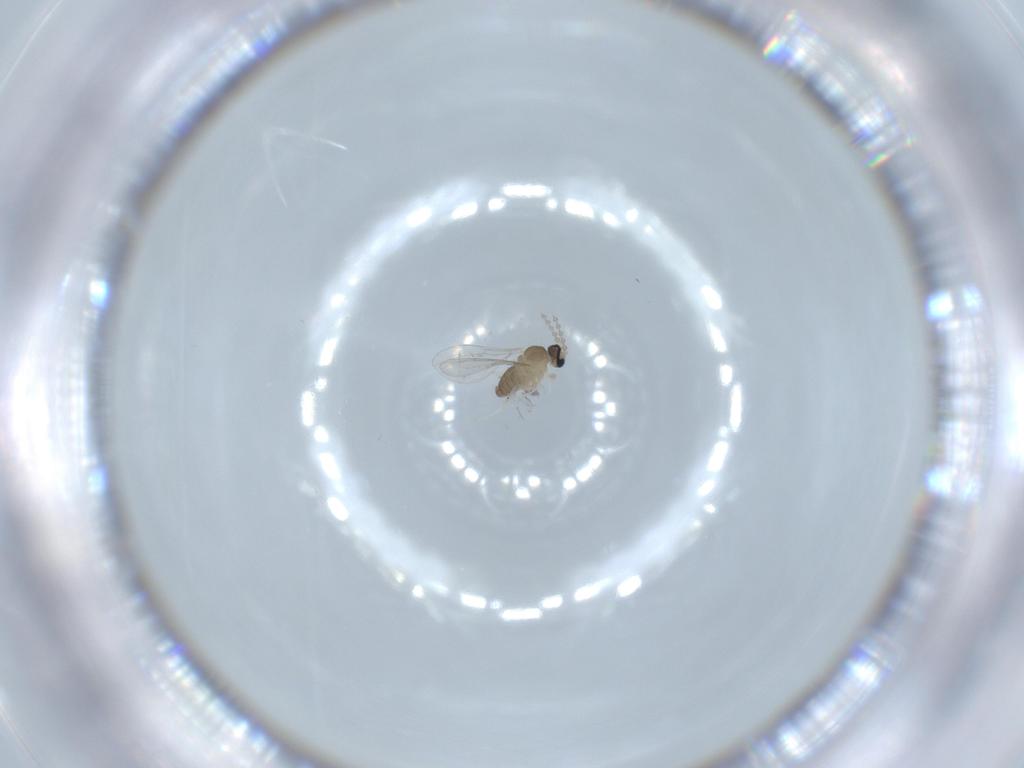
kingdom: Animalia
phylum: Arthropoda
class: Insecta
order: Diptera
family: Cecidomyiidae
